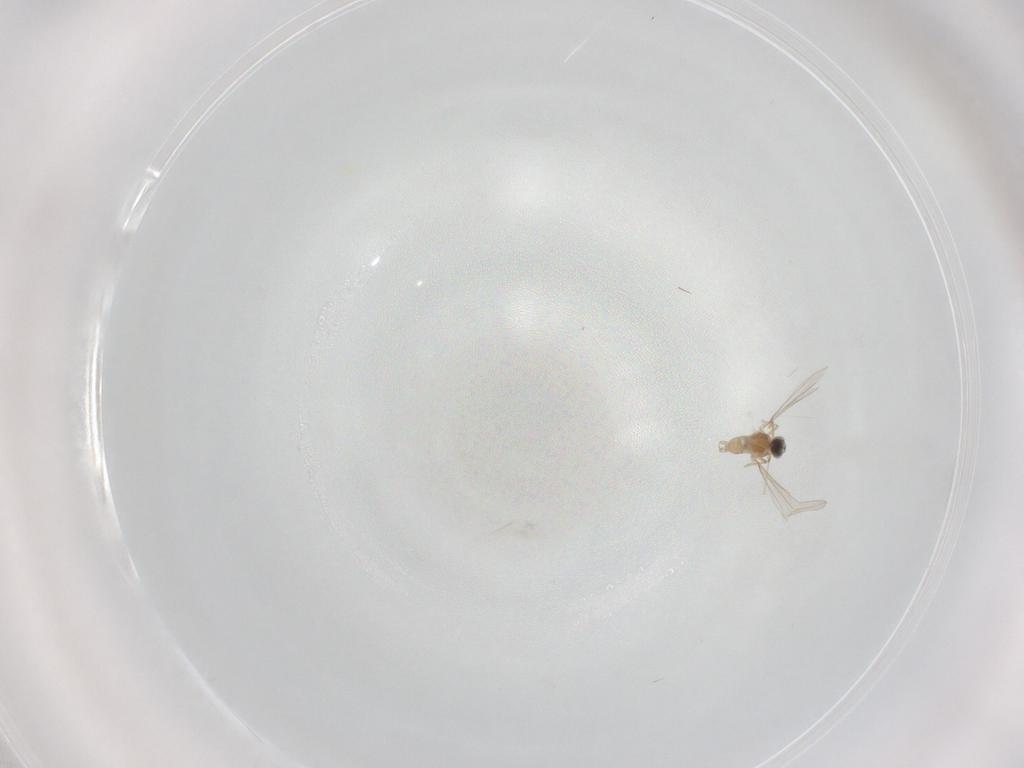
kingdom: Animalia
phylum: Arthropoda
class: Insecta
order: Diptera
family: Cecidomyiidae
